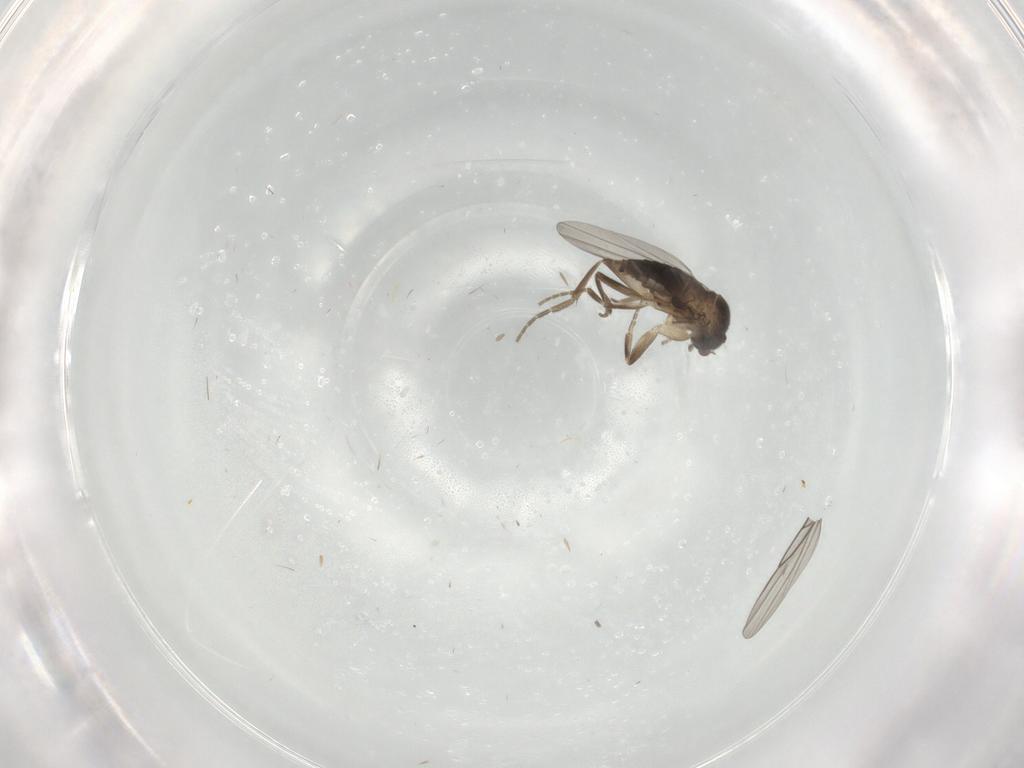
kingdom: Animalia
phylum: Arthropoda
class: Insecta
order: Diptera
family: Phoridae
